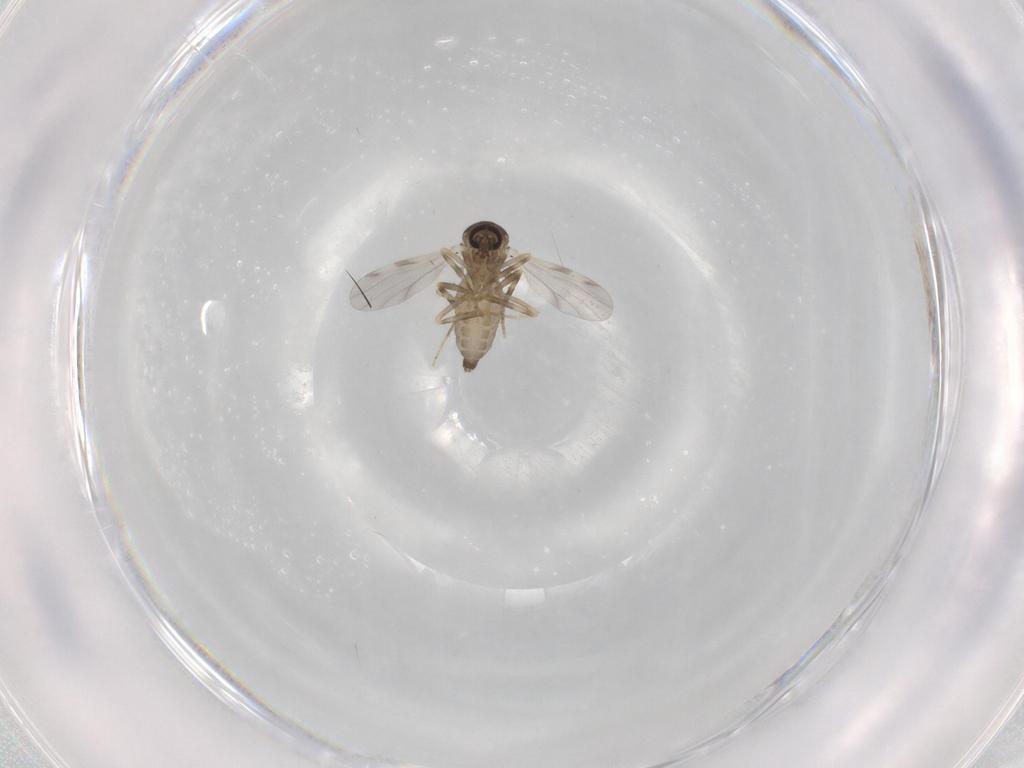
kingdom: Animalia
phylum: Arthropoda
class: Insecta
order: Diptera
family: Ceratopogonidae
